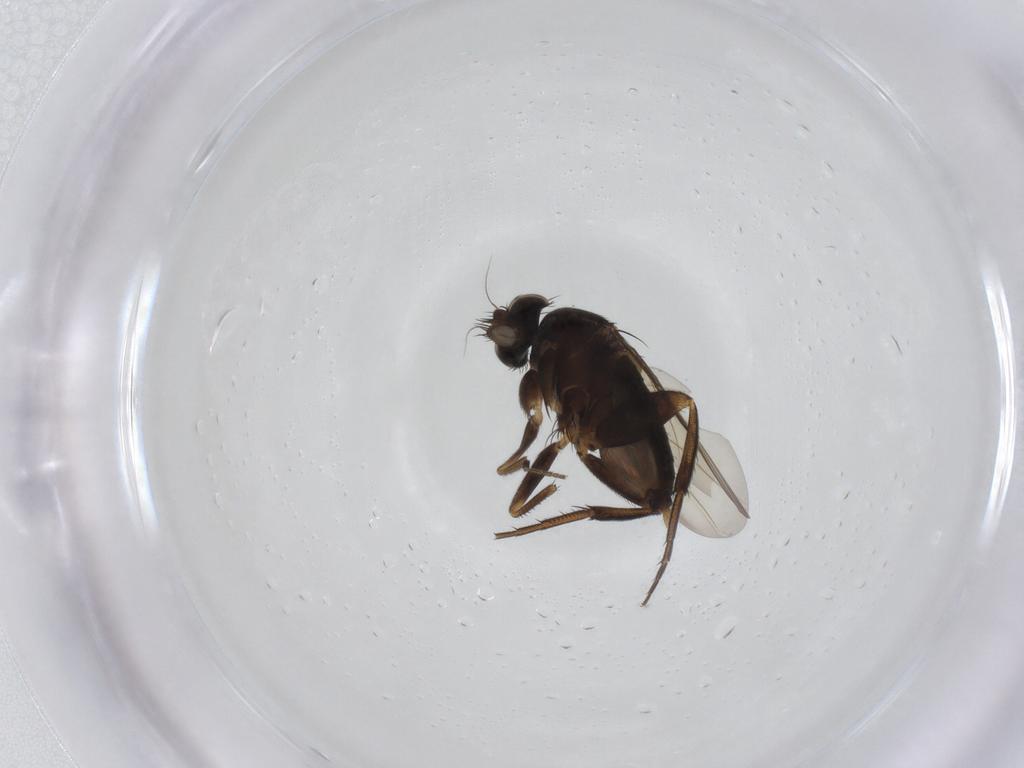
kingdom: Animalia
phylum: Arthropoda
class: Insecta
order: Diptera
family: Phoridae
